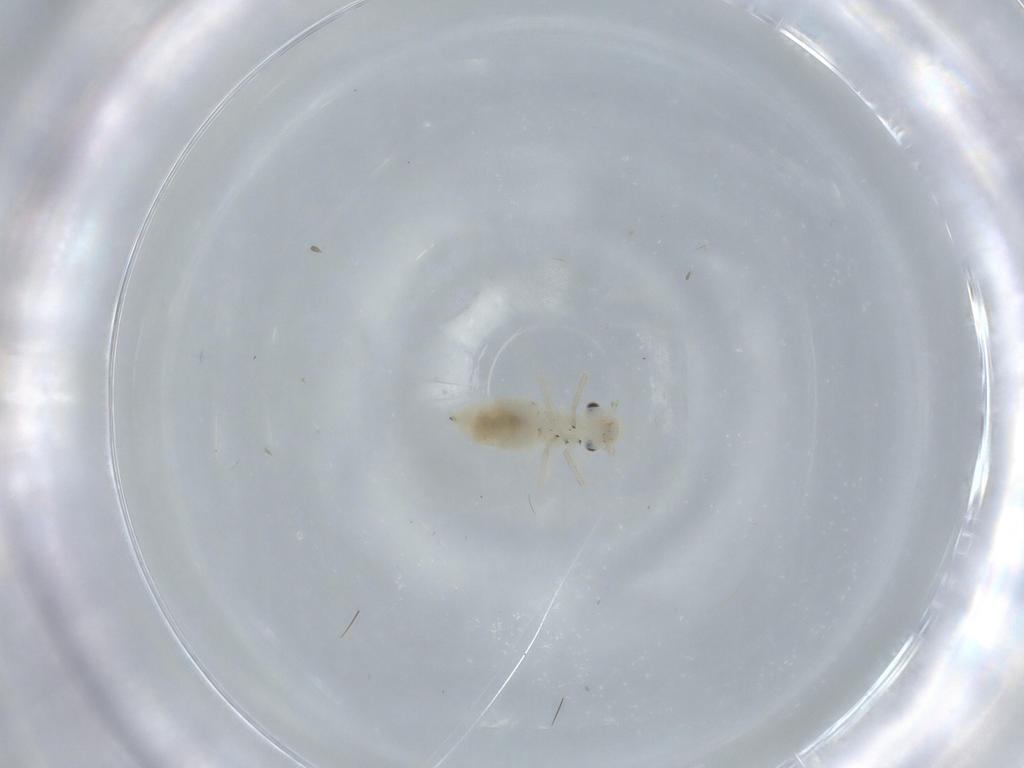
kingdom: Animalia
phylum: Arthropoda
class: Insecta
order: Psocodea
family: Caeciliusidae
